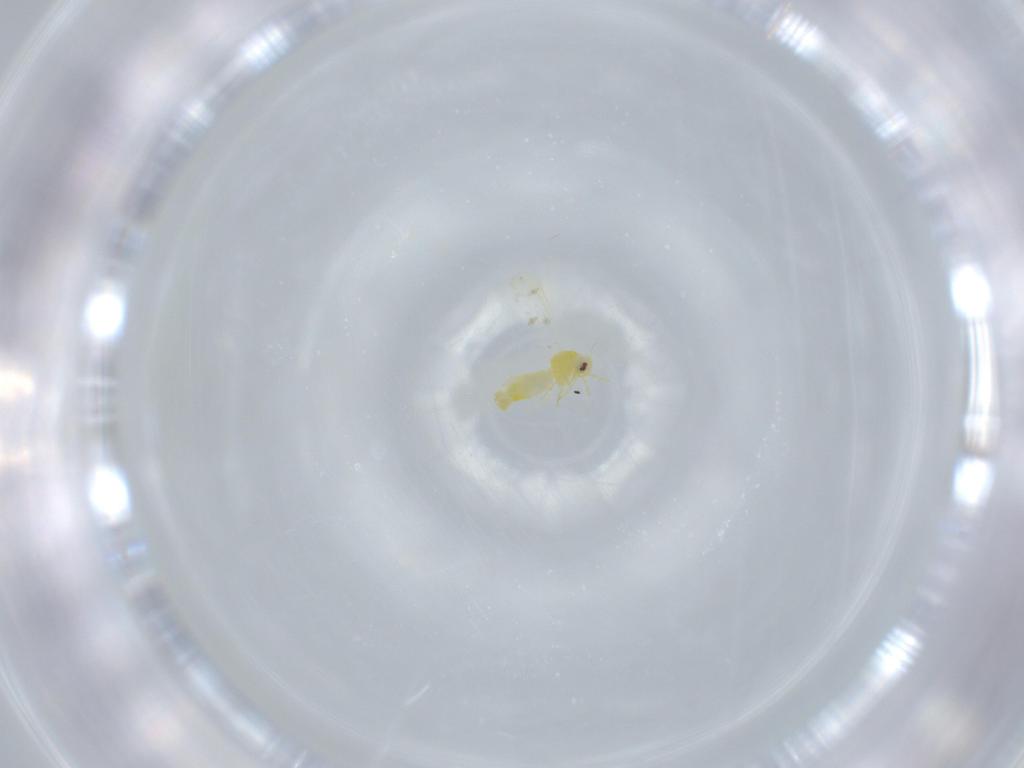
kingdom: Animalia
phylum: Arthropoda
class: Insecta
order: Hemiptera
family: Aleyrodidae
